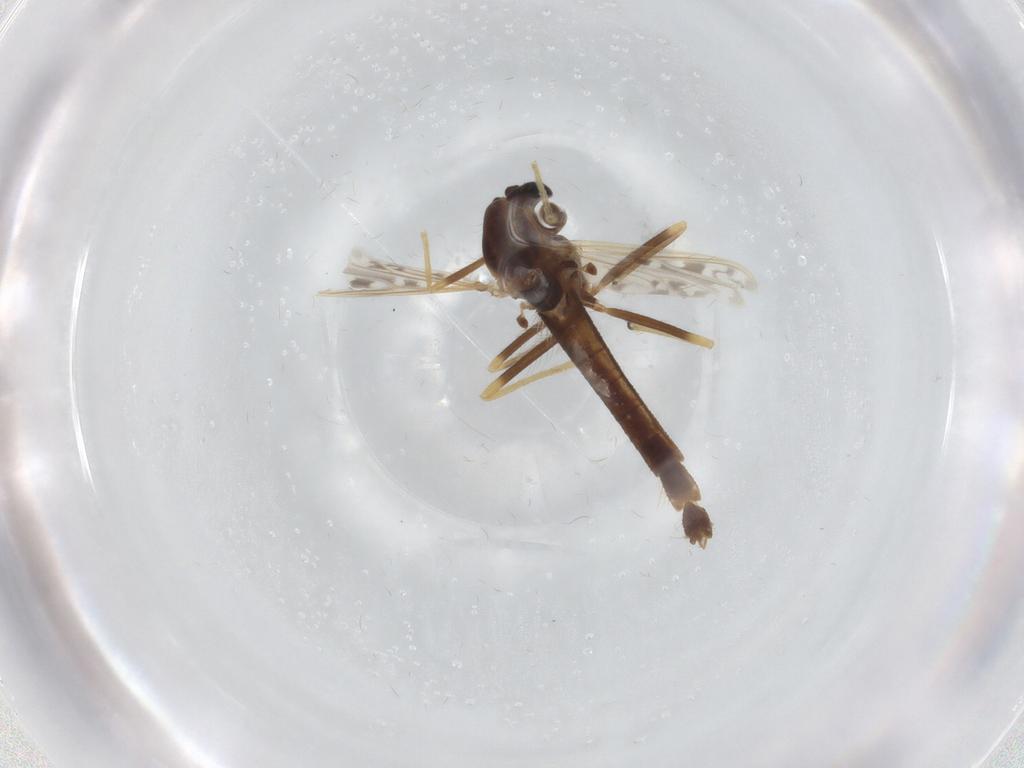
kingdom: Animalia
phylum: Arthropoda
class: Insecta
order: Diptera
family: Chironomidae
